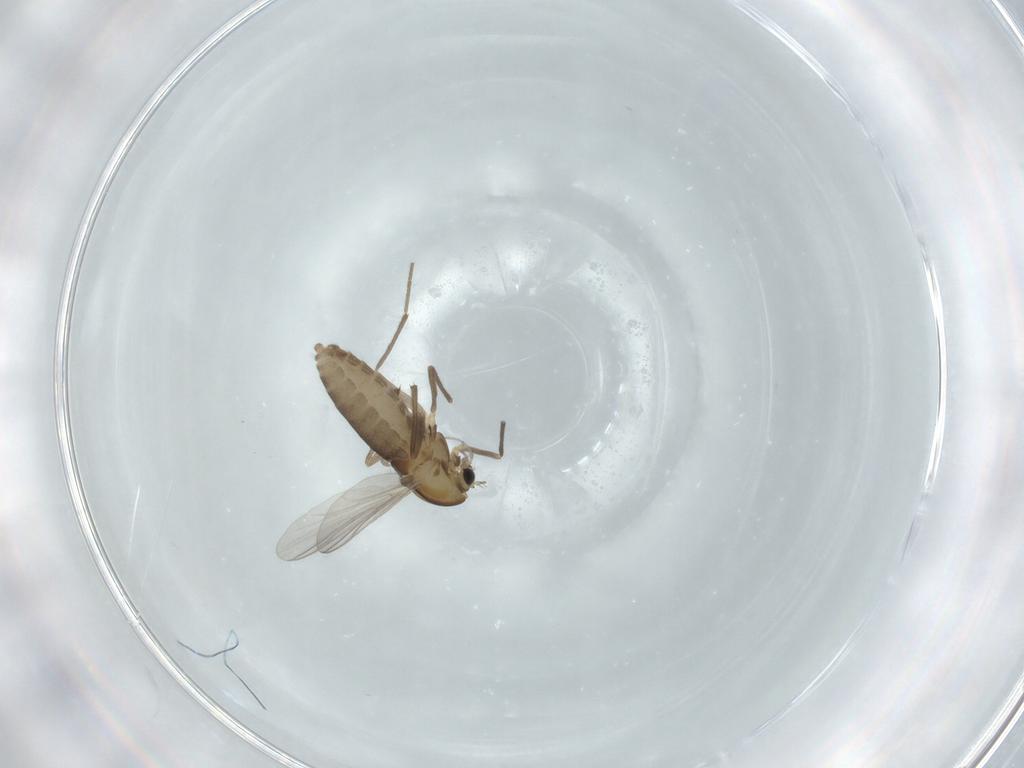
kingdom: Animalia
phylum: Arthropoda
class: Insecta
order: Diptera
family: Chironomidae
